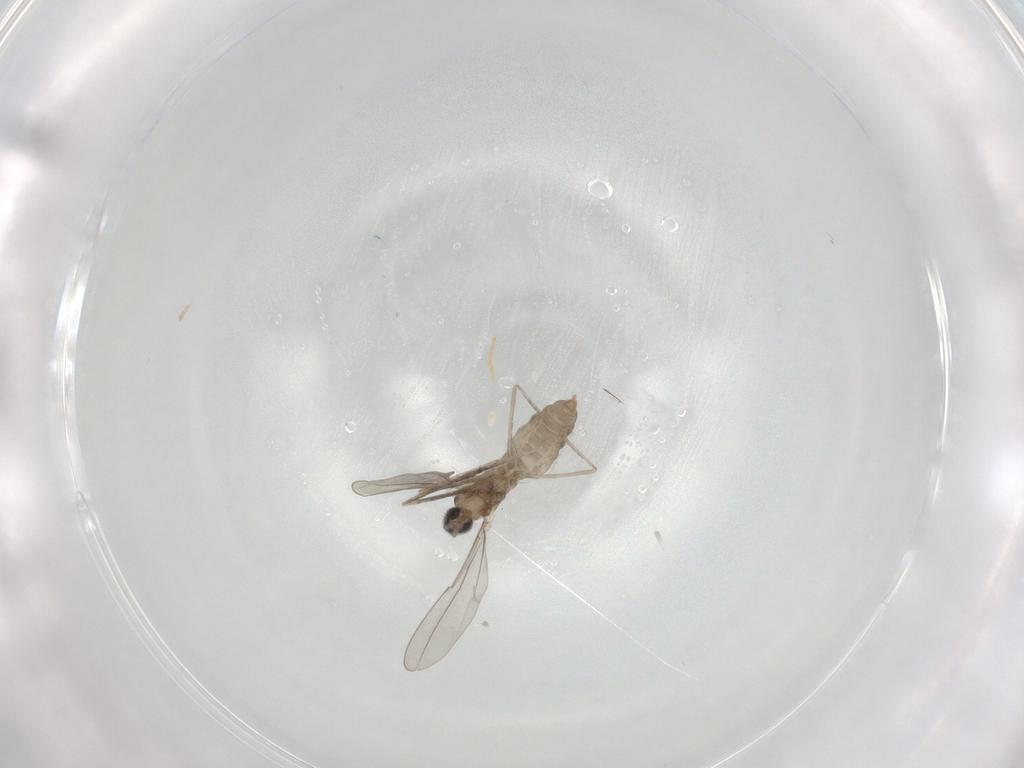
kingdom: Animalia
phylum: Arthropoda
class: Insecta
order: Diptera
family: Cecidomyiidae
